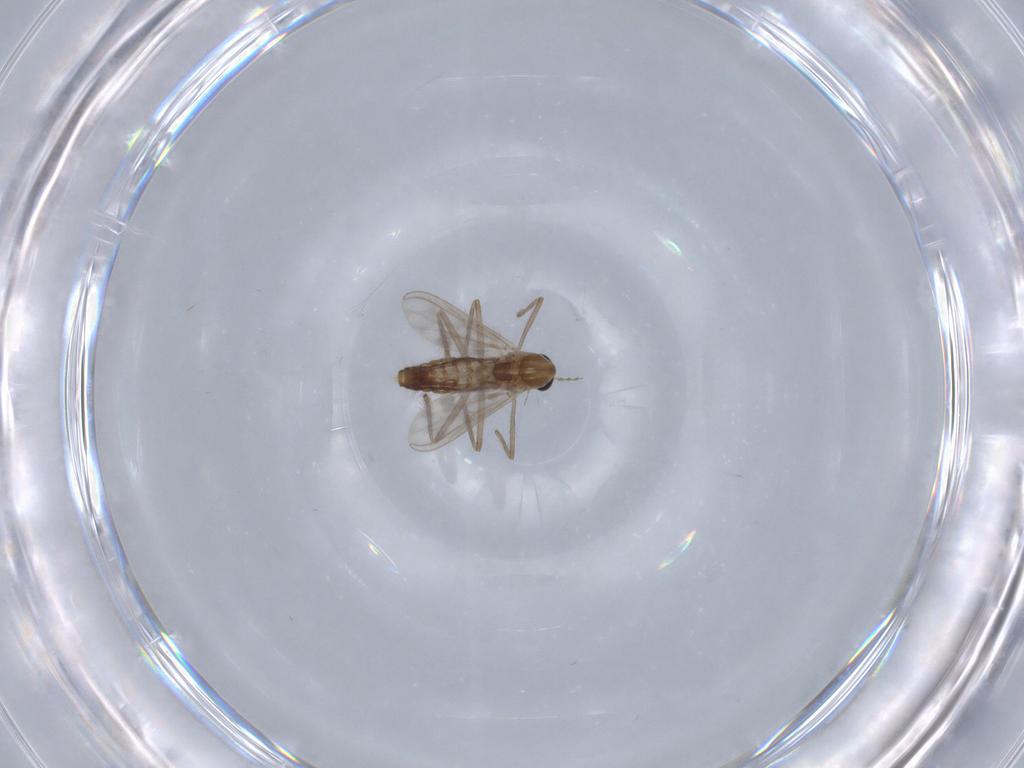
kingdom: Animalia
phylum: Arthropoda
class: Insecta
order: Diptera
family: Chironomidae
